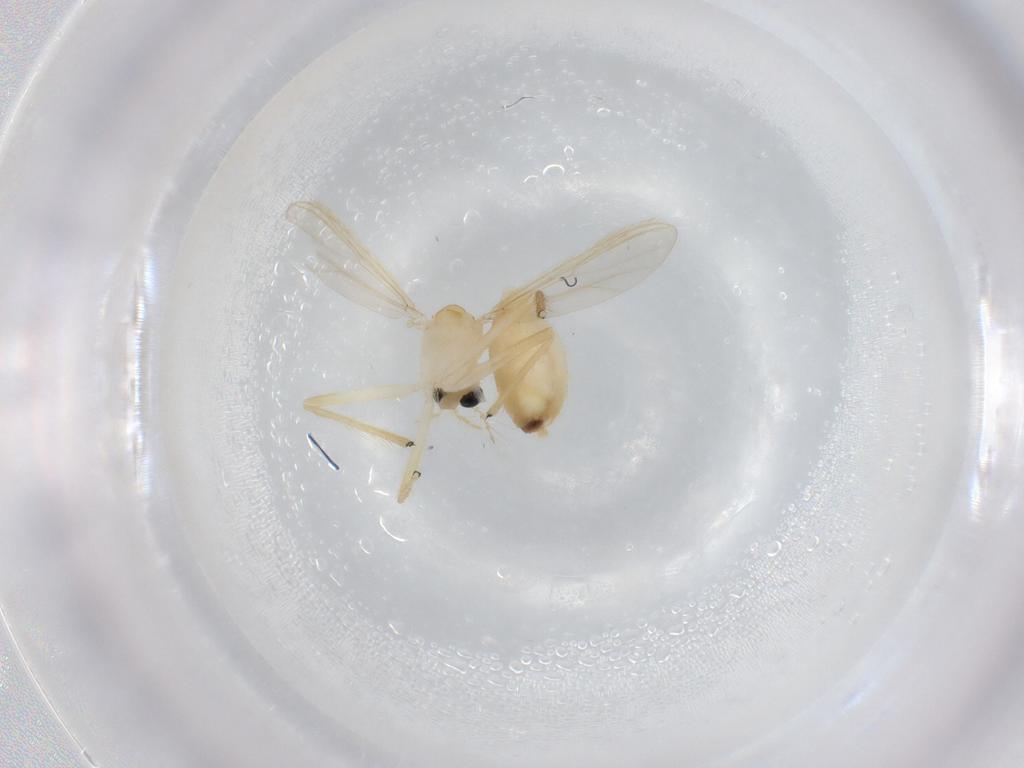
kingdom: Animalia
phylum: Arthropoda
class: Insecta
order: Diptera
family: Chironomidae
